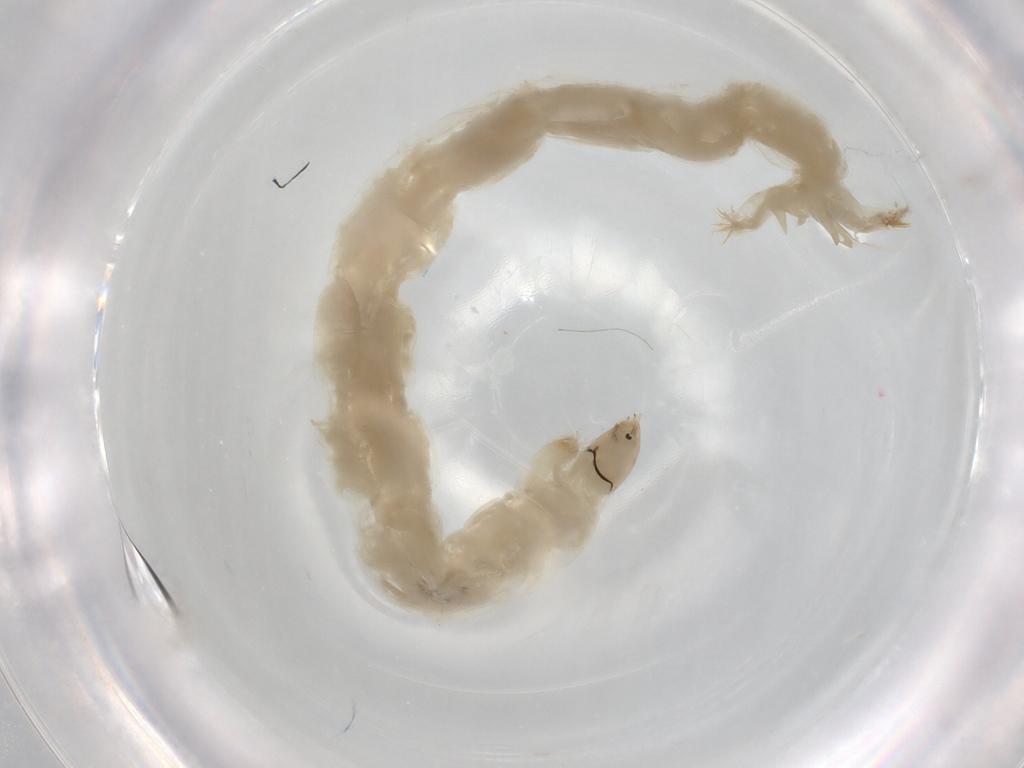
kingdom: Animalia
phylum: Arthropoda
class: Insecta
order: Diptera
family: Chironomidae
